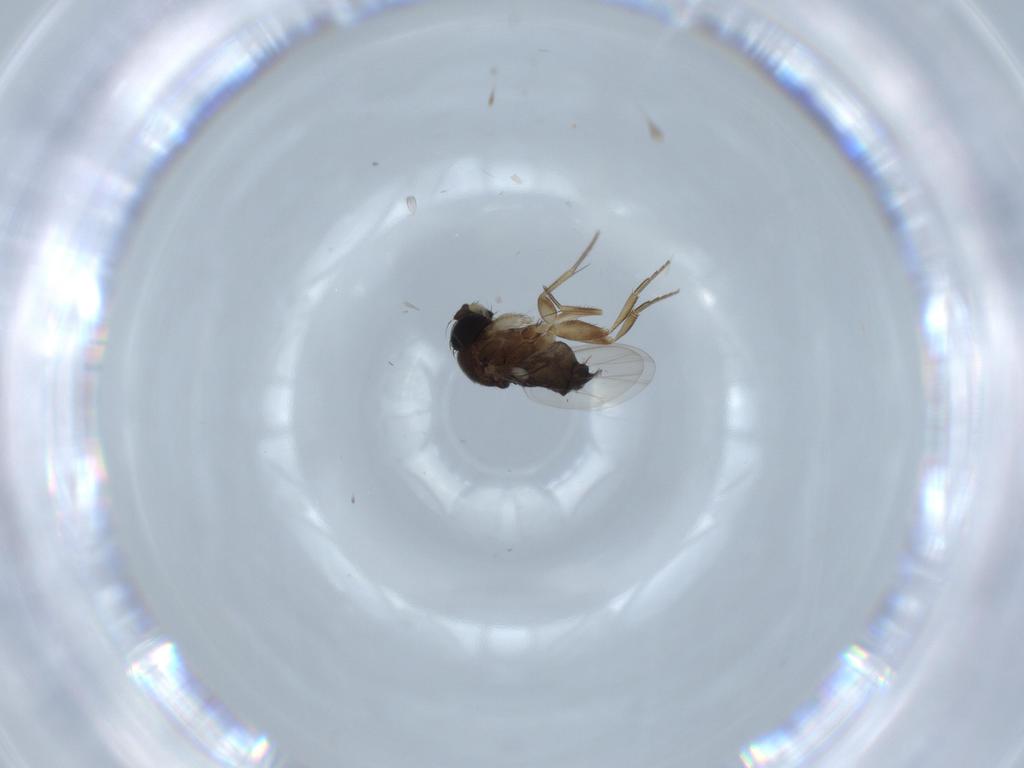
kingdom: Animalia
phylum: Arthropoda
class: Insecta
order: Diptera
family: Phoridae
